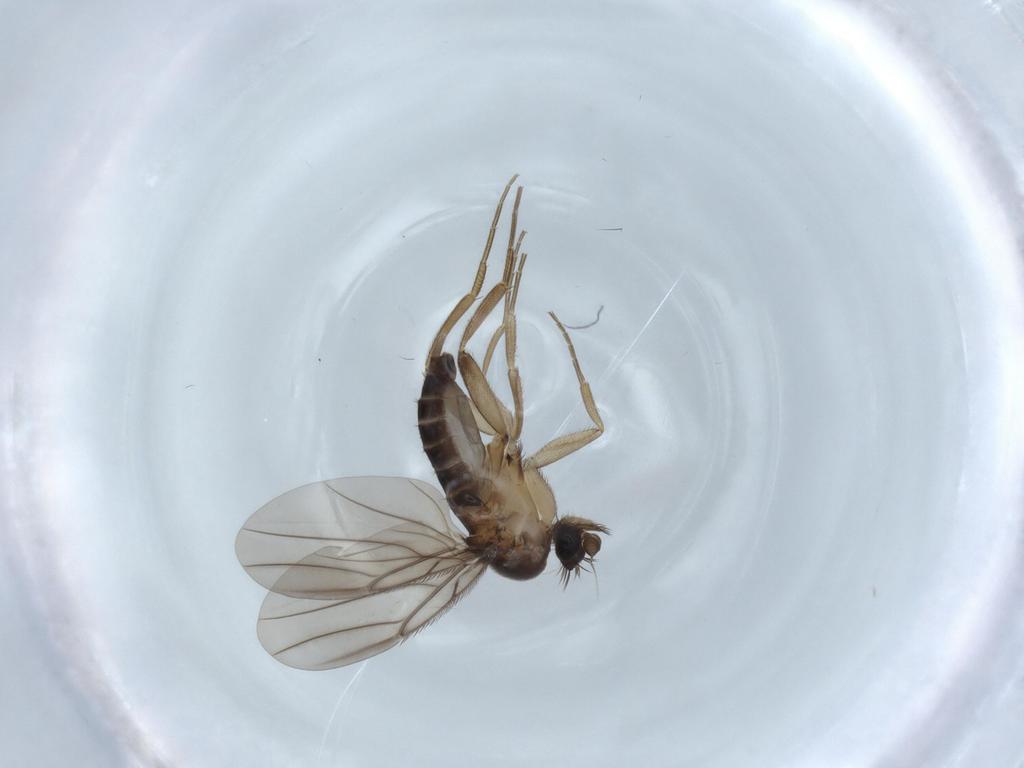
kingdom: Animalia
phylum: Arthropoda
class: Insecta
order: Diptera
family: Phoridae
